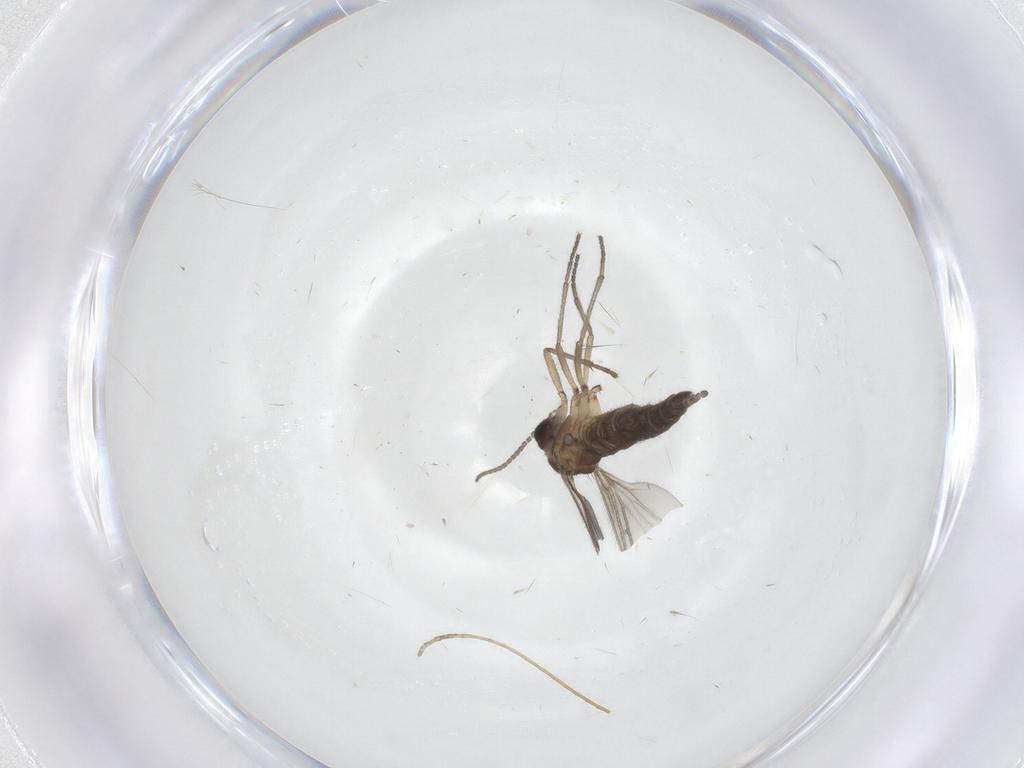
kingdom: Animalia
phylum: Arthropoda
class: Insecta
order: Diptera
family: Sciaridae
